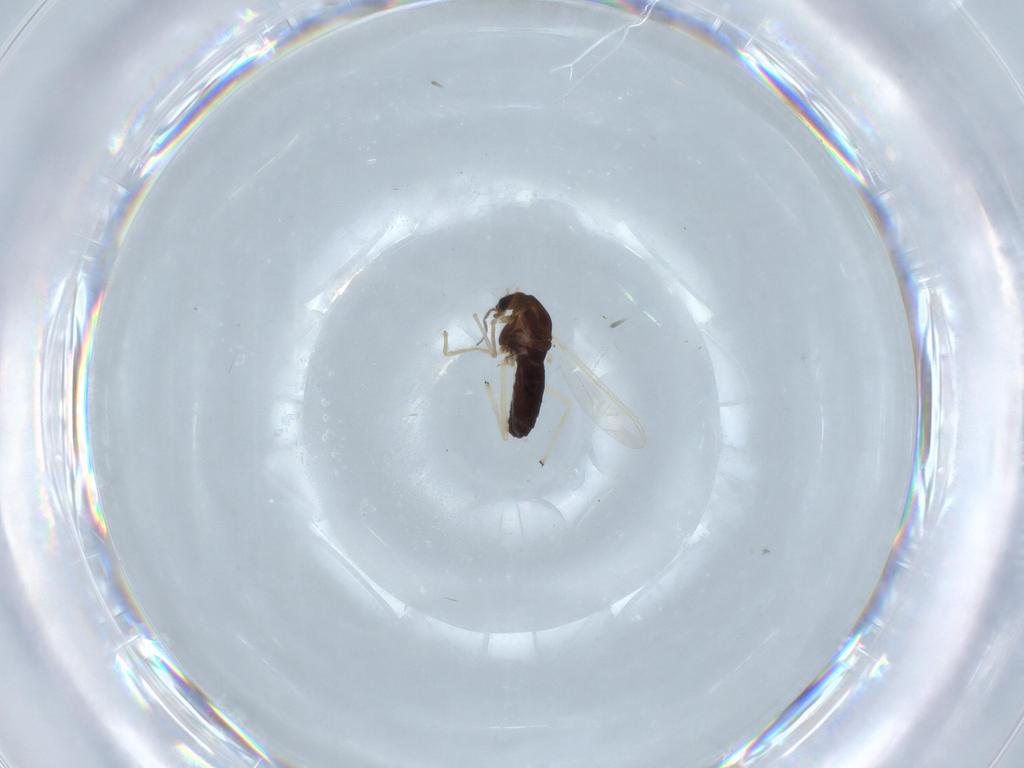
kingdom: Animalia
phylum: Arthropoda
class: Insecta
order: Diptera
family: Chironomidae
